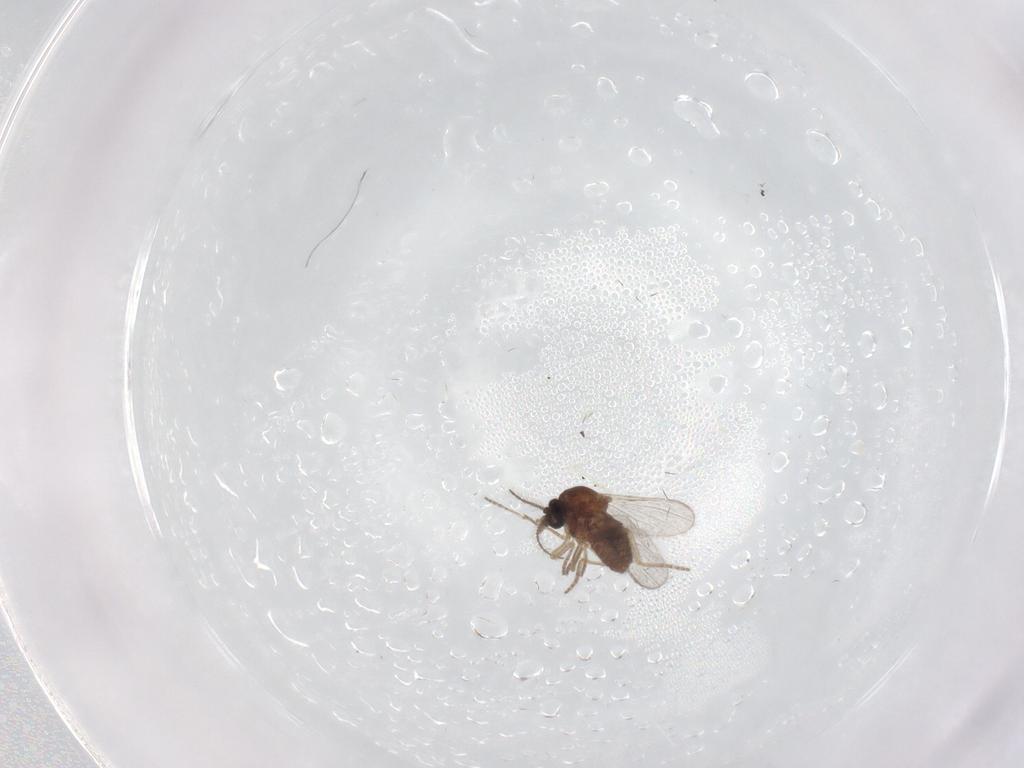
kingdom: Animalia
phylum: Arthropoda
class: Insecta
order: Diptera
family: Ceratopogonidae
